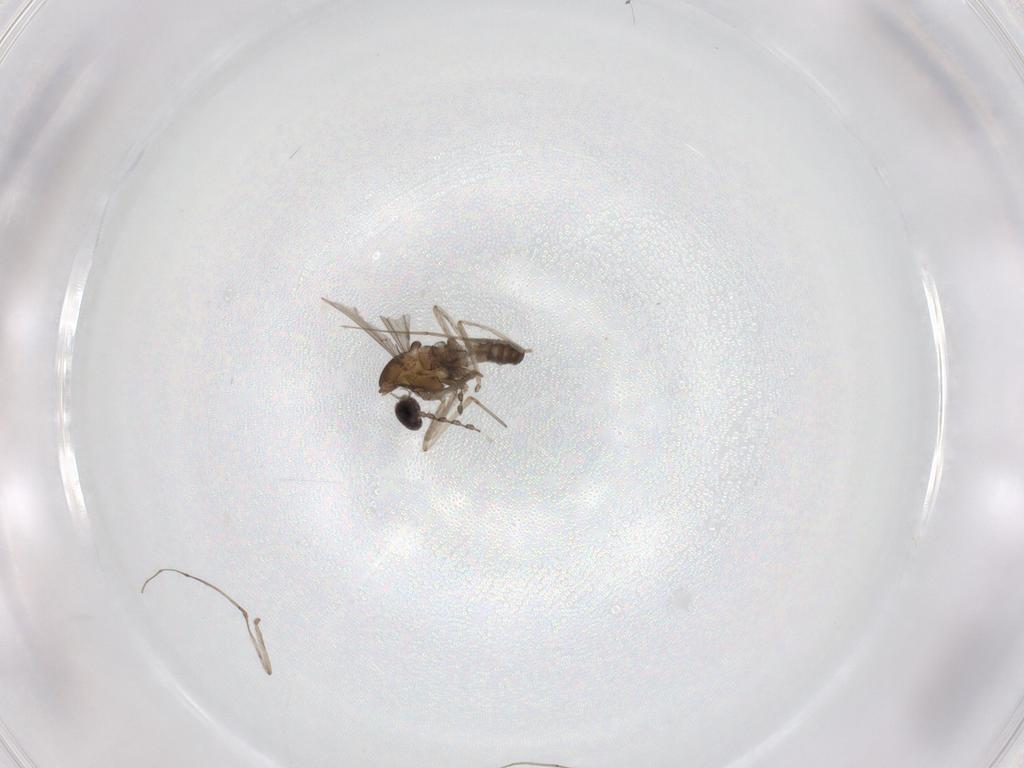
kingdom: Animalia
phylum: Arthropoda
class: Insecta
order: Diptera
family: Cecidomyiidae
